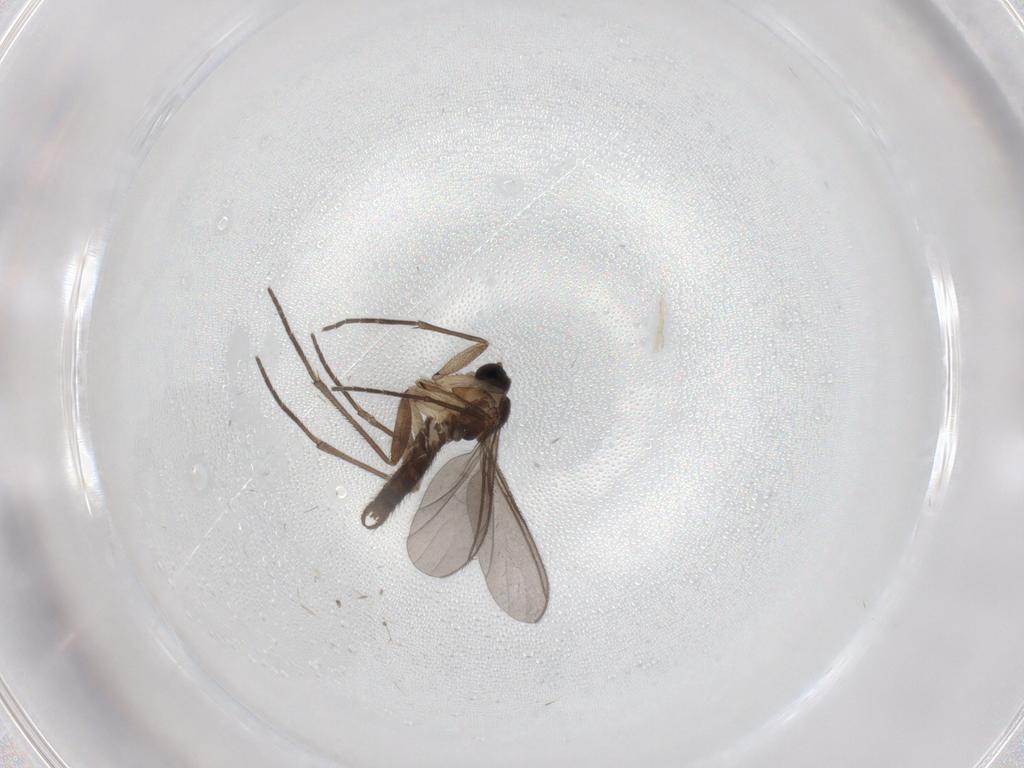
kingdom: Animalia
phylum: Arthropoda
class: Insecta
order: Diptera
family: Sciaridae
